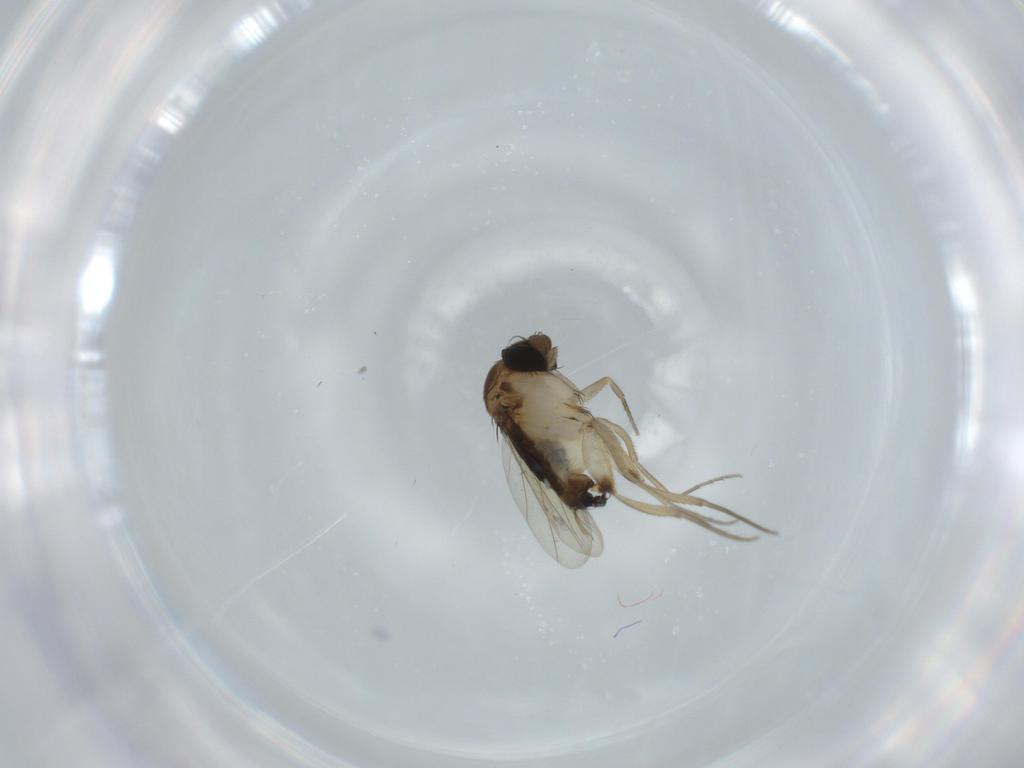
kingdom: Animalia
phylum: Arthropoda
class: Insecta
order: Diptera
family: Phoridae
